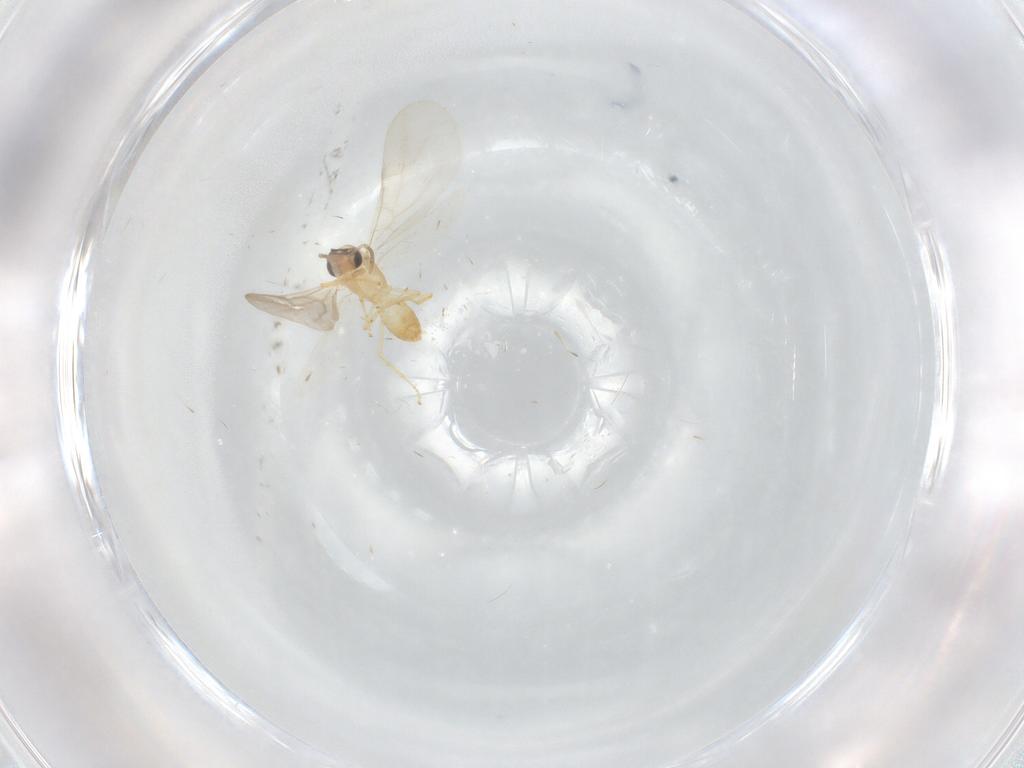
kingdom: Animalia
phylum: Arthropoda
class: Insecta
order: Hymenoptera
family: Formicidae
